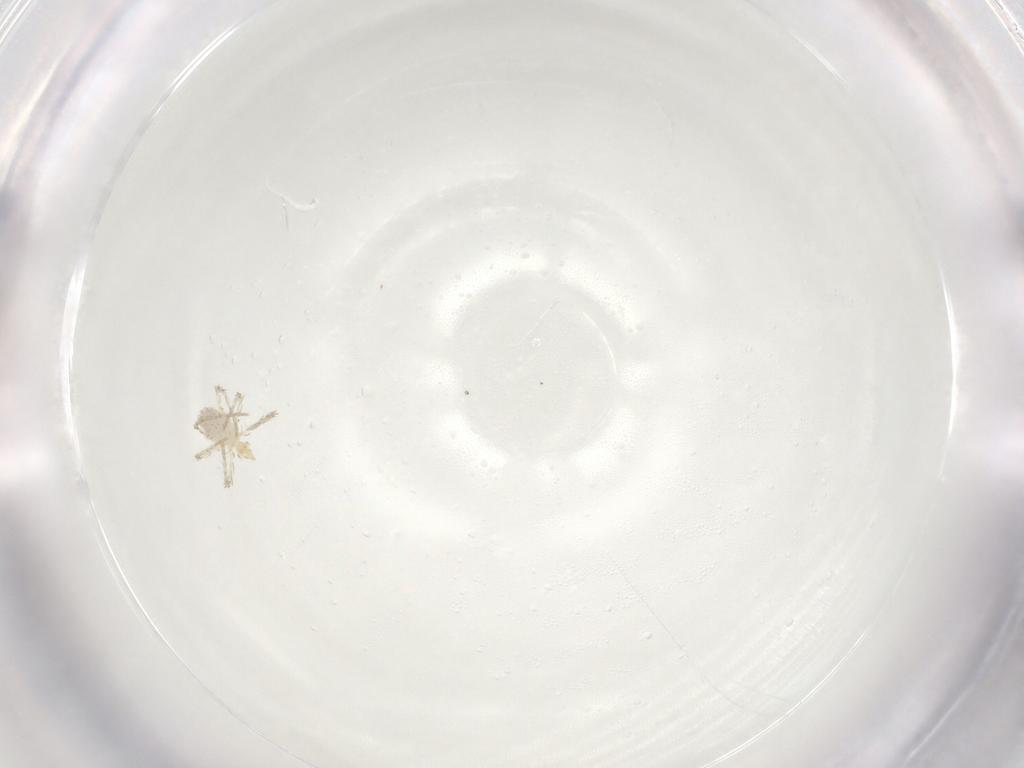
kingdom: Animalia
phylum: Arthropoda
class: Arachnida
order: Trombidiformes
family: Erythraeidae
